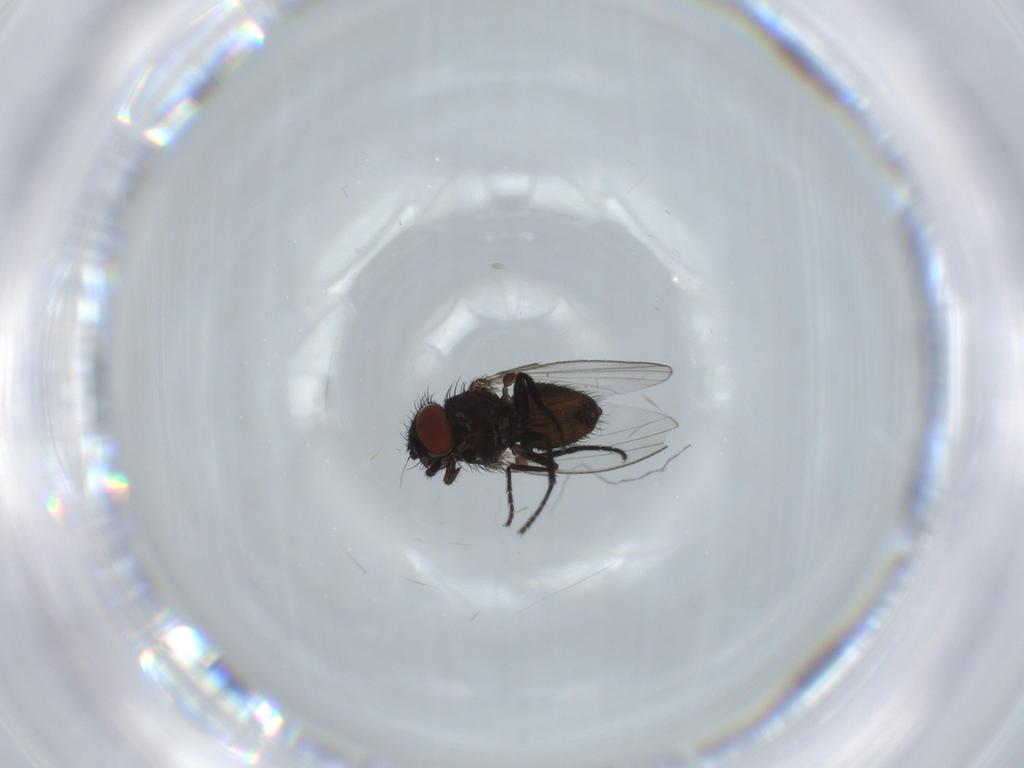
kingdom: Animalia
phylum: Arthropoda
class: Insecta
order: Diptera
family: Milichiidae
